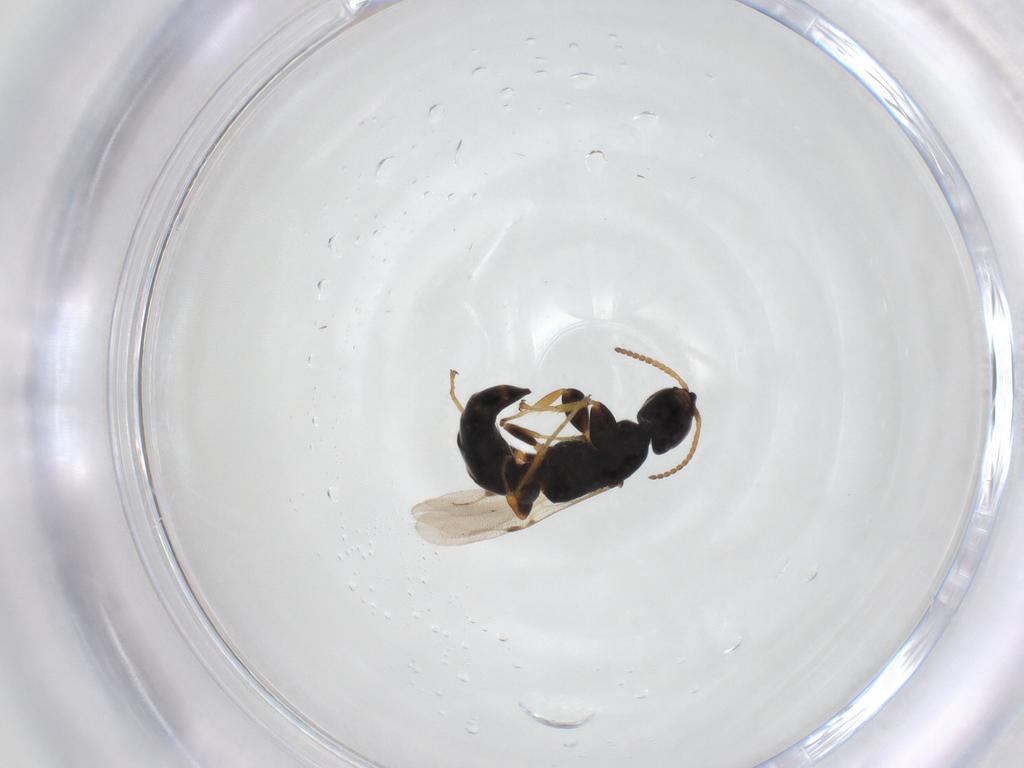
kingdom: Animalia
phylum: Arthropoda
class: Insecta
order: Hymenoptera
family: Bethylidae
